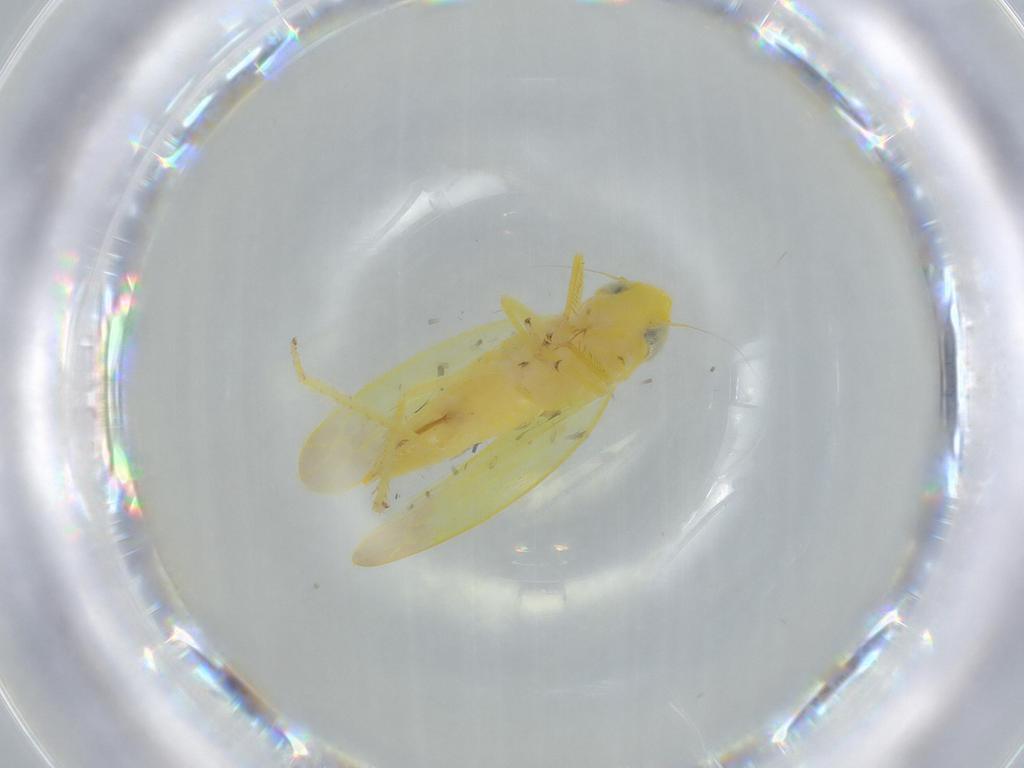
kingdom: Animalia
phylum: Arthropoda
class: Insecta
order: Hemiptera
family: Cicadellidae
